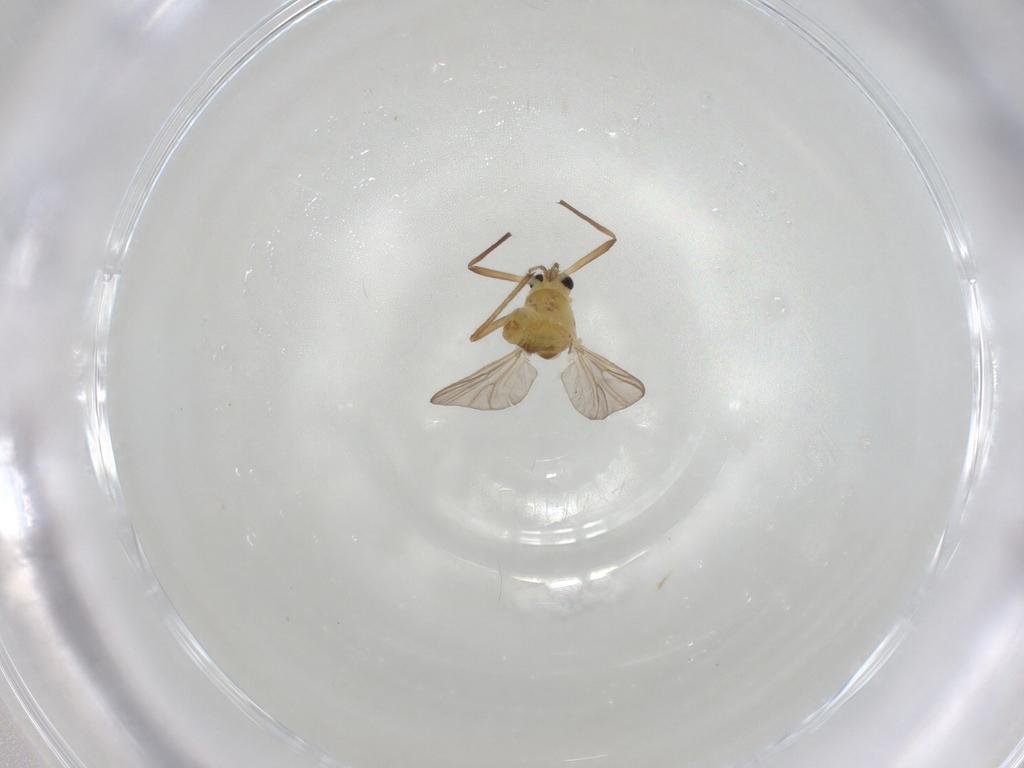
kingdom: Animalia
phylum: Arthropoda
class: Insecta
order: Diptera
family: Chironomidae
